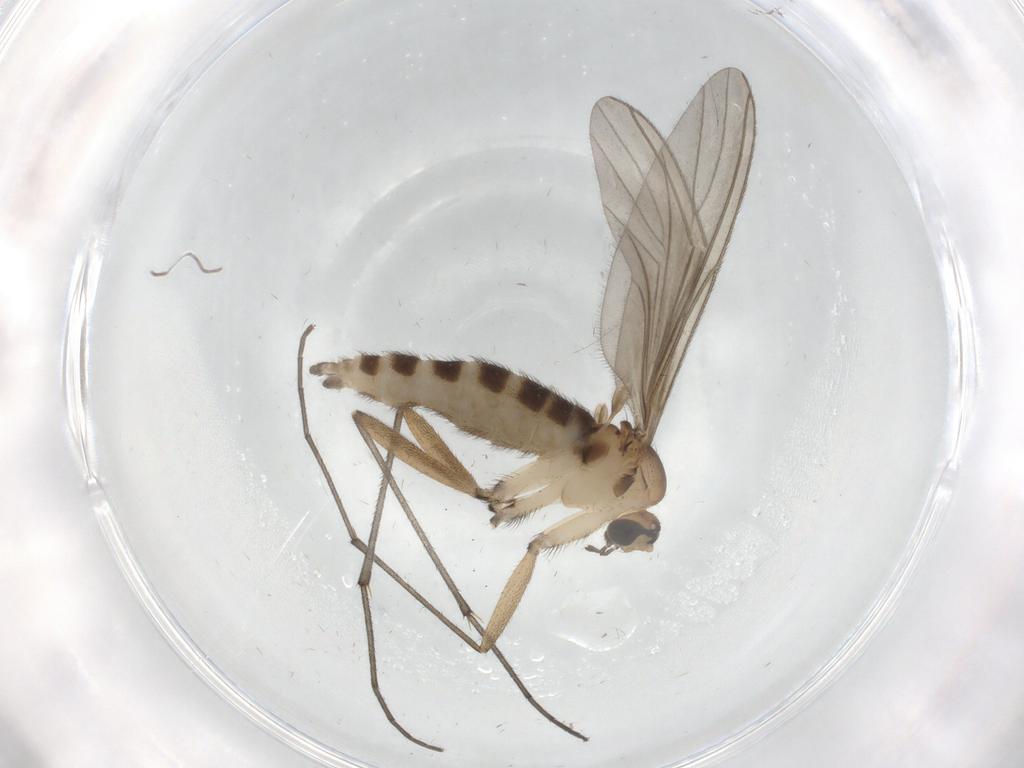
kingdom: Animalia
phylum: Arthropoda
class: Insecta
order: Diptera
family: Sciaridae
